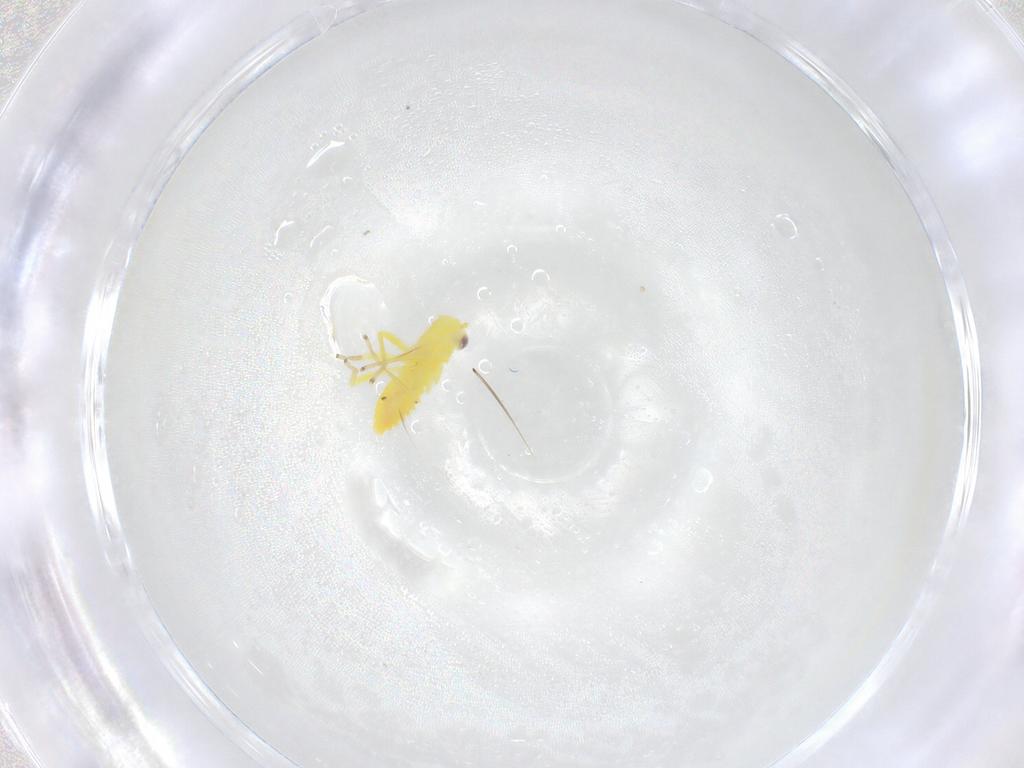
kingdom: Animalia
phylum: Arthropoda
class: Insecta
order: Hemiptera
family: Cicadellidae
